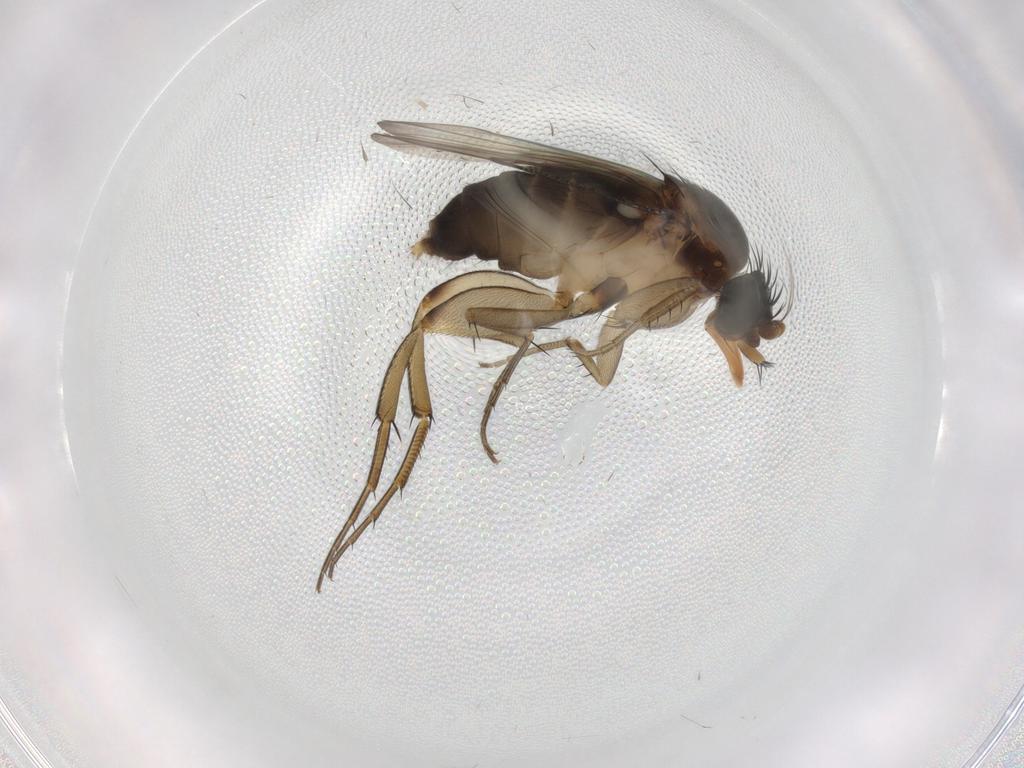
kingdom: Animalia
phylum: Arthropoda
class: Insecta
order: Diptera
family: Phoridae
